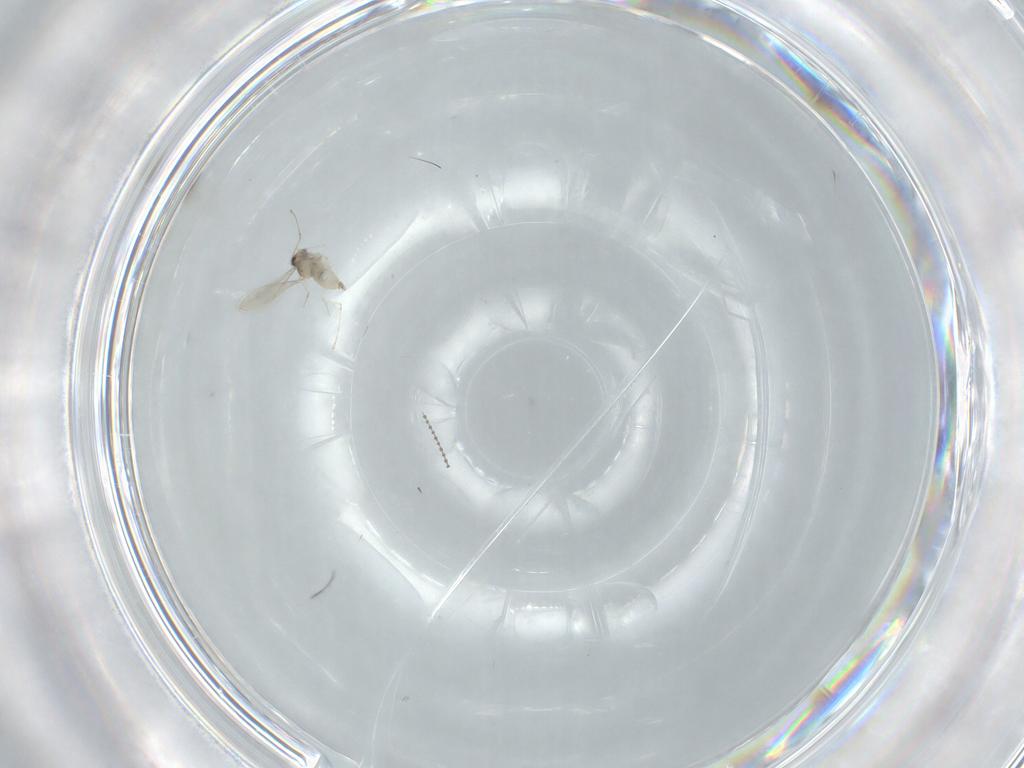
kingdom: Animalia
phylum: Arthropoda
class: Insecta
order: Diptera
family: Cecidomyiidae
